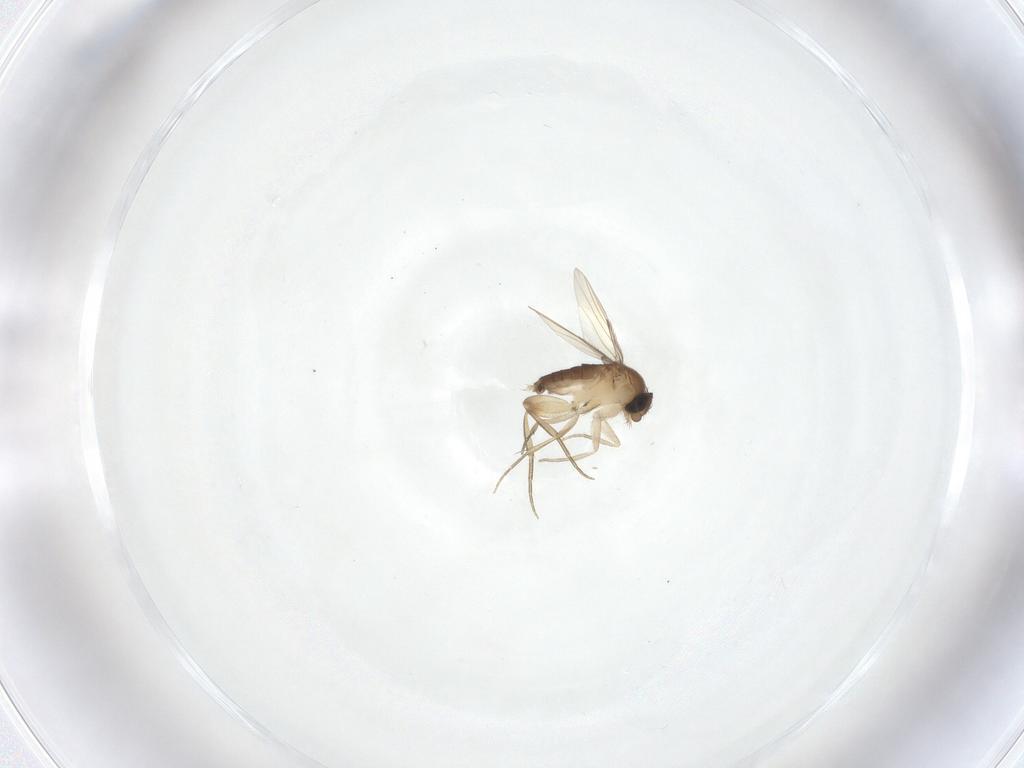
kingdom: Animalia
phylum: Arthropoda
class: Insecta
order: Diptera
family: Phoridae
